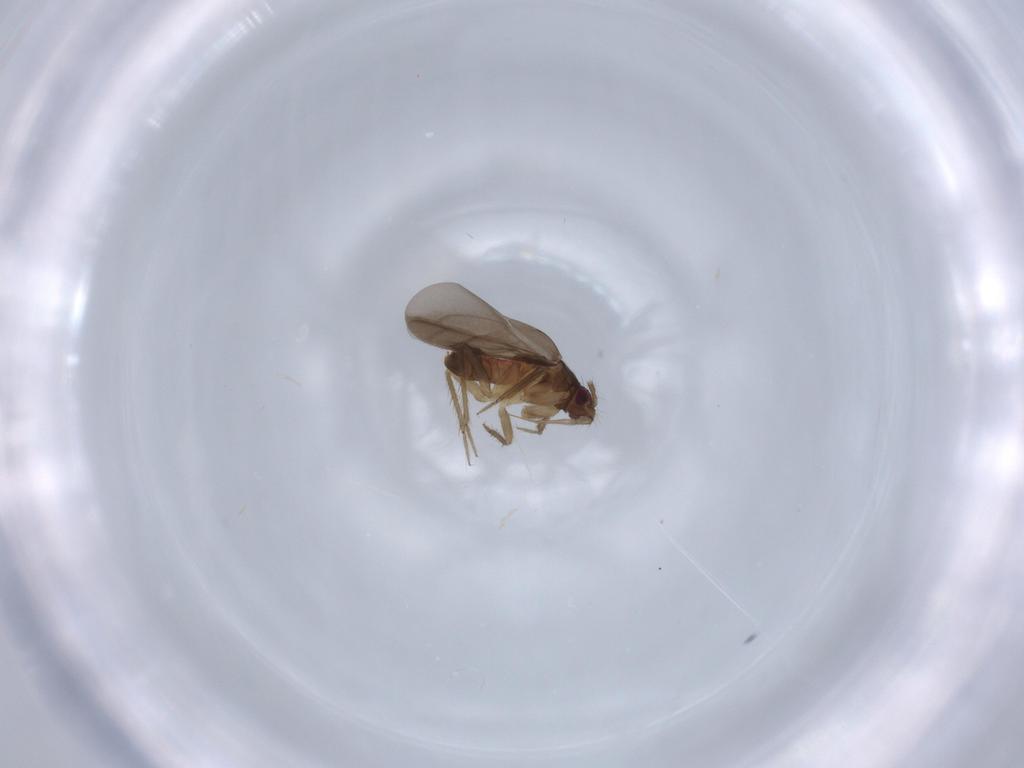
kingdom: Animalia
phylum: Arthropoda
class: Insecta
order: Hemiptera
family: Ceratocombidae
